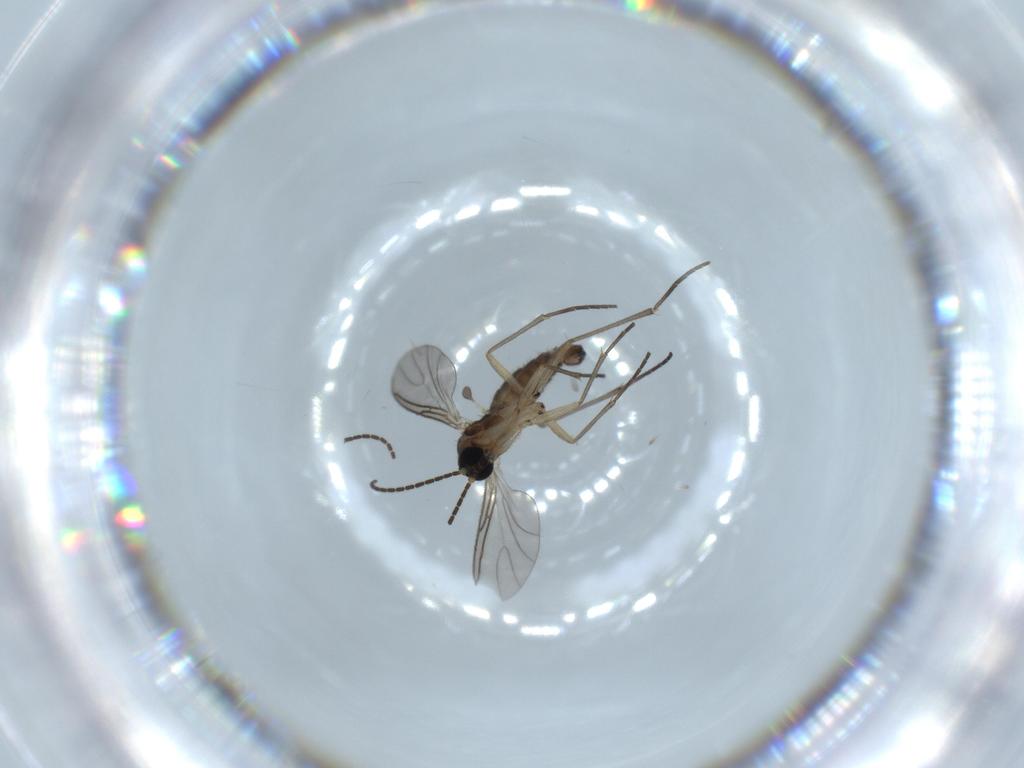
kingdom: Animalia
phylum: Arthropoda
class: Insecta
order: Diptera
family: Sciaridae
